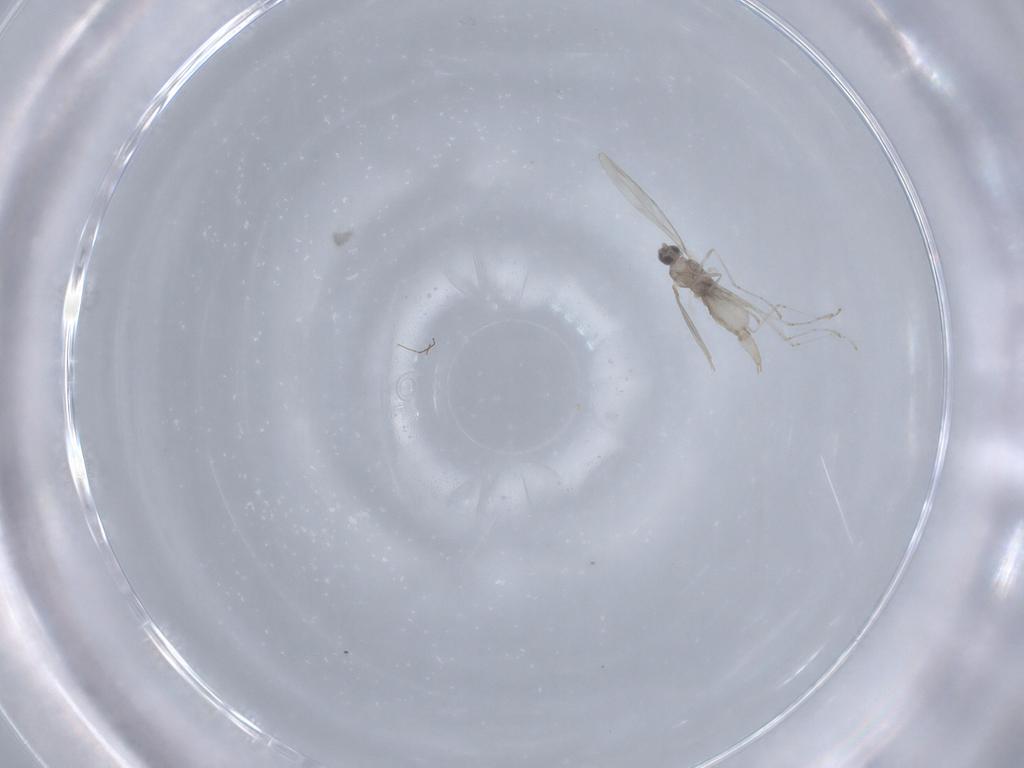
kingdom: Animalia
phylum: Arthropoda
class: Insecta
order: Diptera
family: Cecidomyiidae
